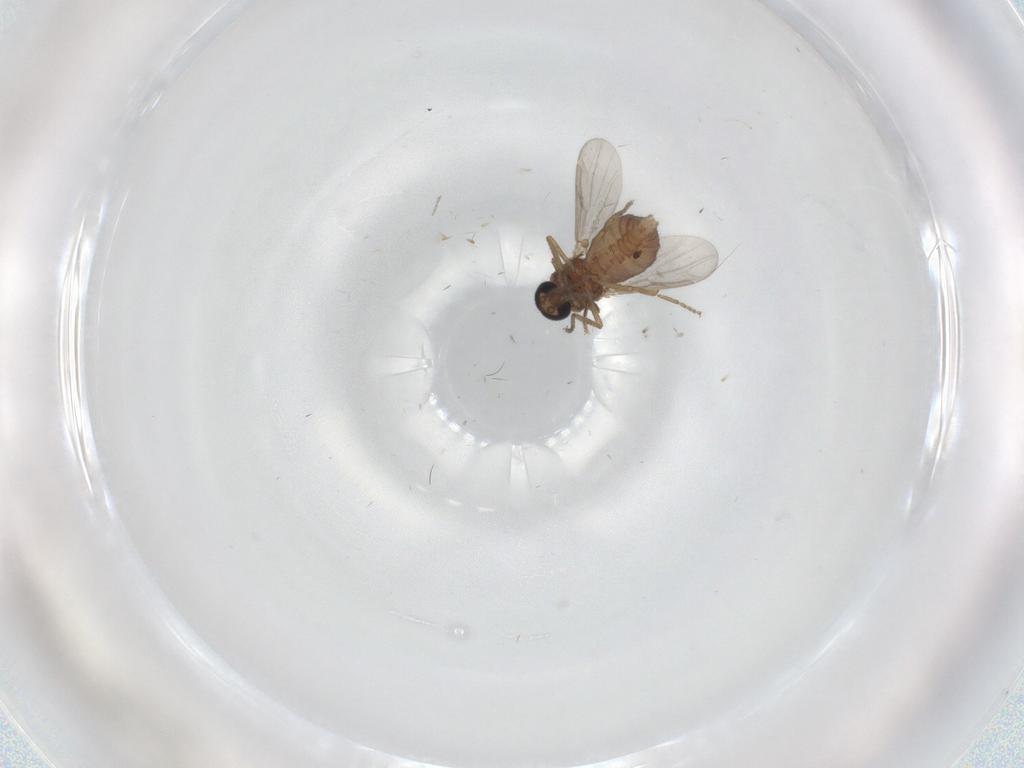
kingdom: Animalia
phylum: Arthropoda
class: Insecta
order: Diptera
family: Ceratopogonidae
